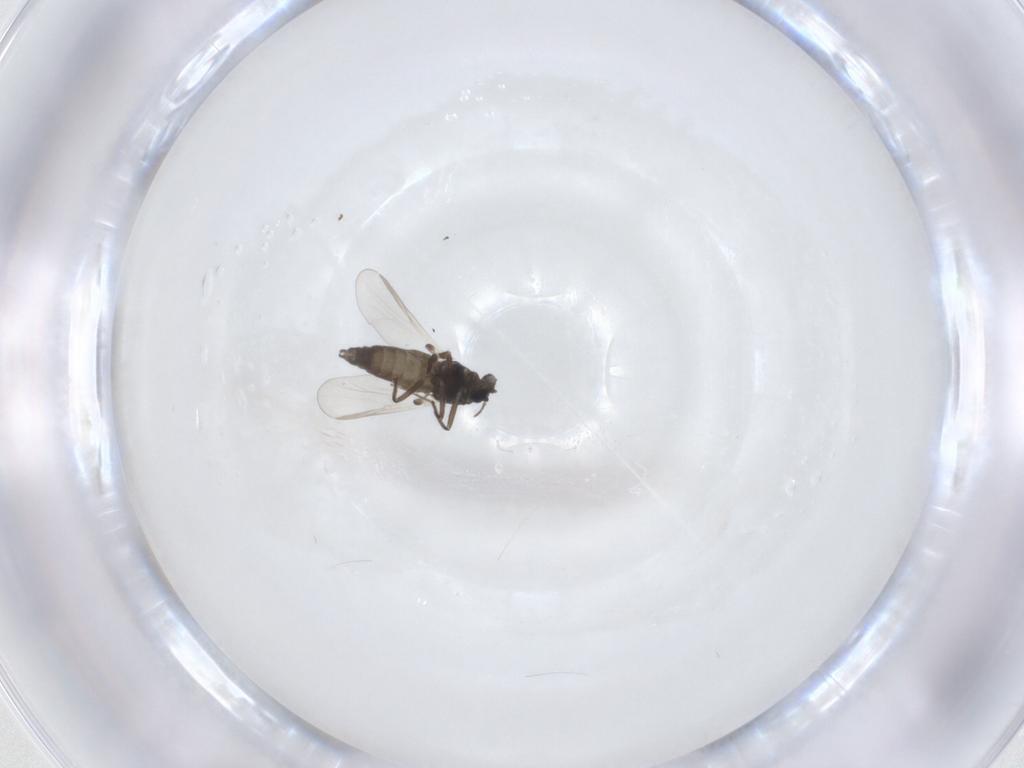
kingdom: Animalia
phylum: Arthropoda
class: Insecta
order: Diptera
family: Chironomidae
